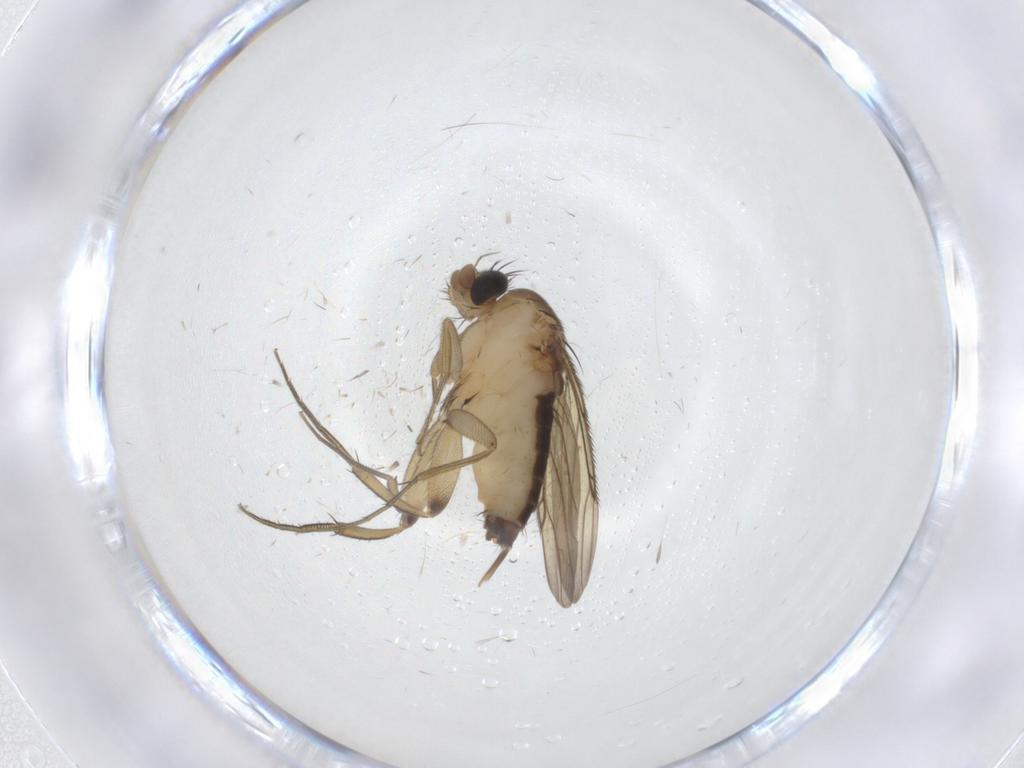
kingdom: Animalia
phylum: Arthropoda
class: Insecta
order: Diptera
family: Phoridae
